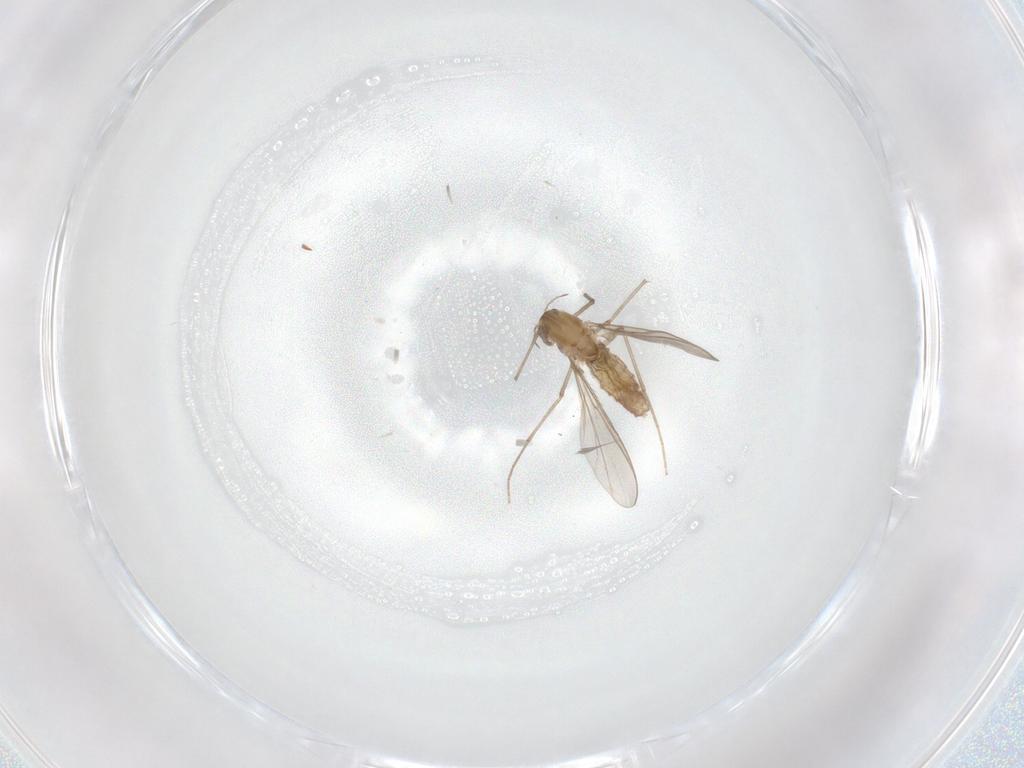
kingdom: Animalia
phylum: Arthropoda
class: Insecta
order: Diptera
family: Chironomidae
